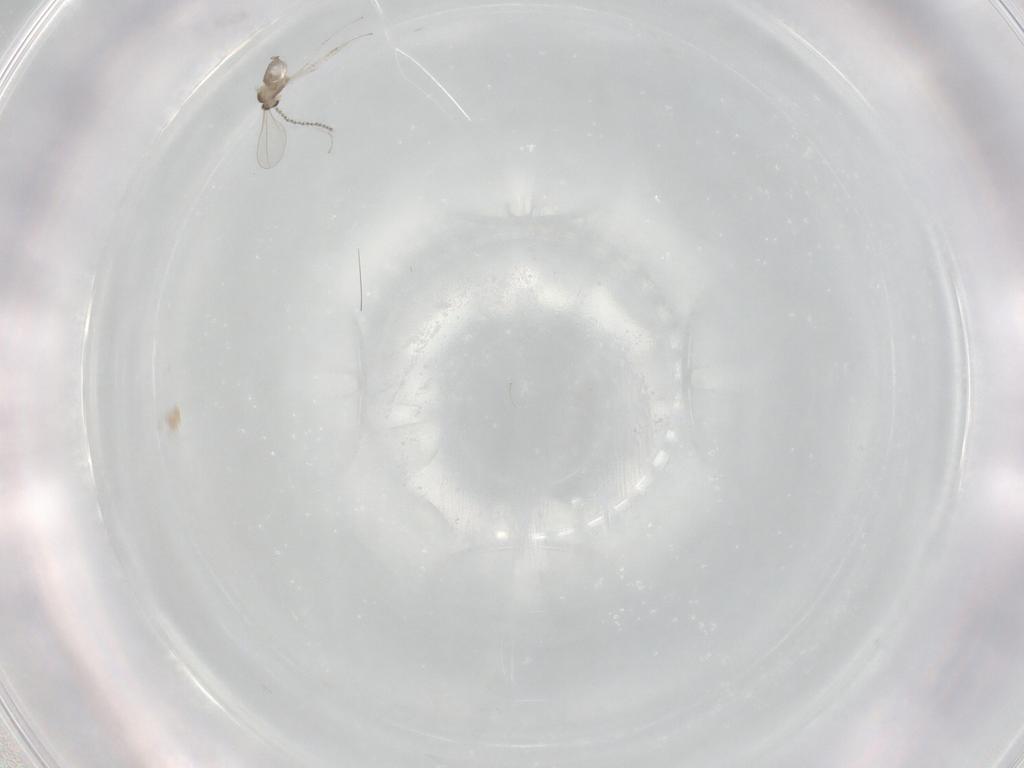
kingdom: Animalia
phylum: Arthropoda
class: Insecta
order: Diptera
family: Cecidomyiidae
